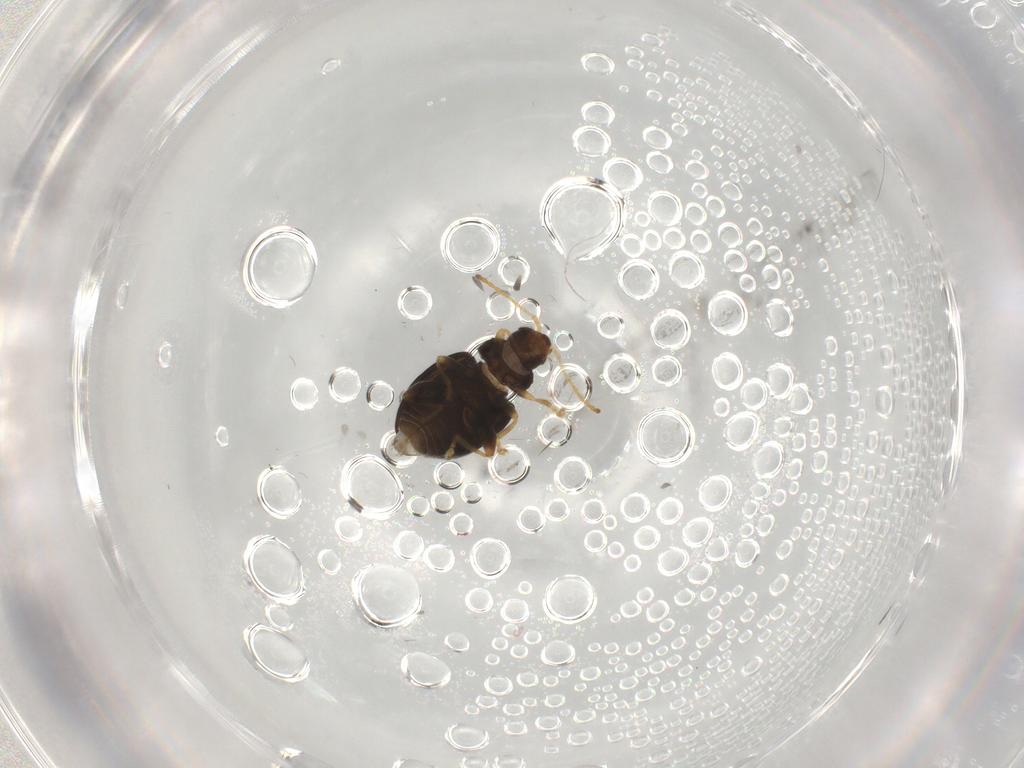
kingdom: Animalia
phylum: Arthropoda
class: Insecta
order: Coleoptera
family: Chrysomelidae
